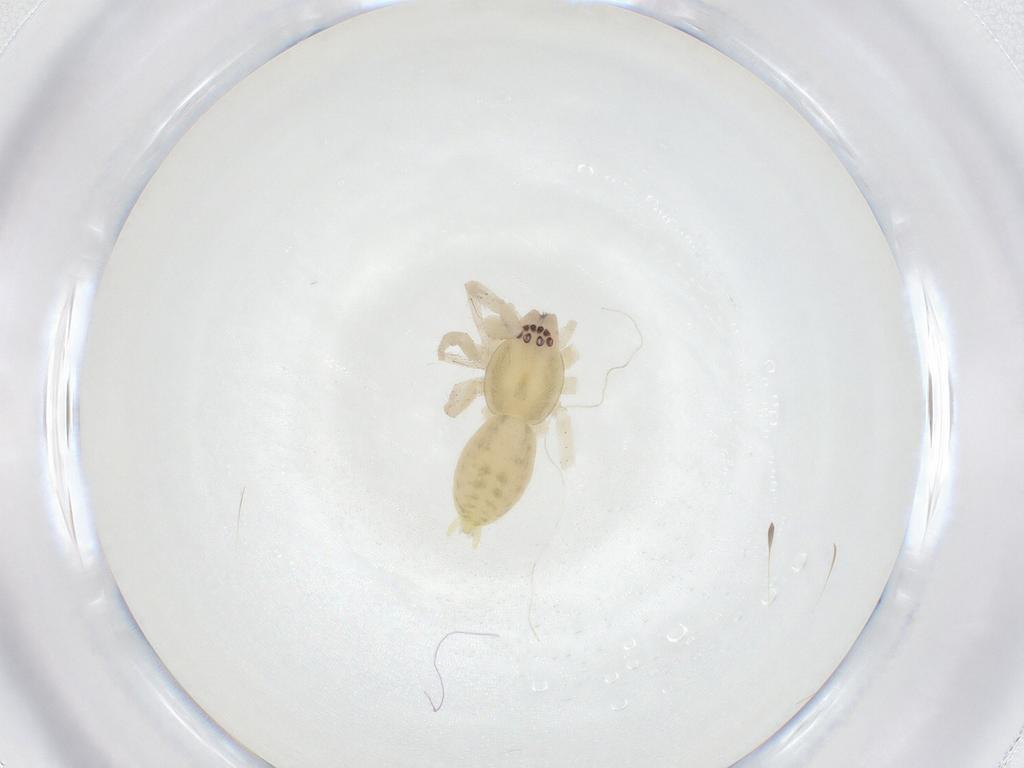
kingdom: Animalia
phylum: Arthropoda
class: Arachnida
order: Araneae
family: Anyphaenidae
